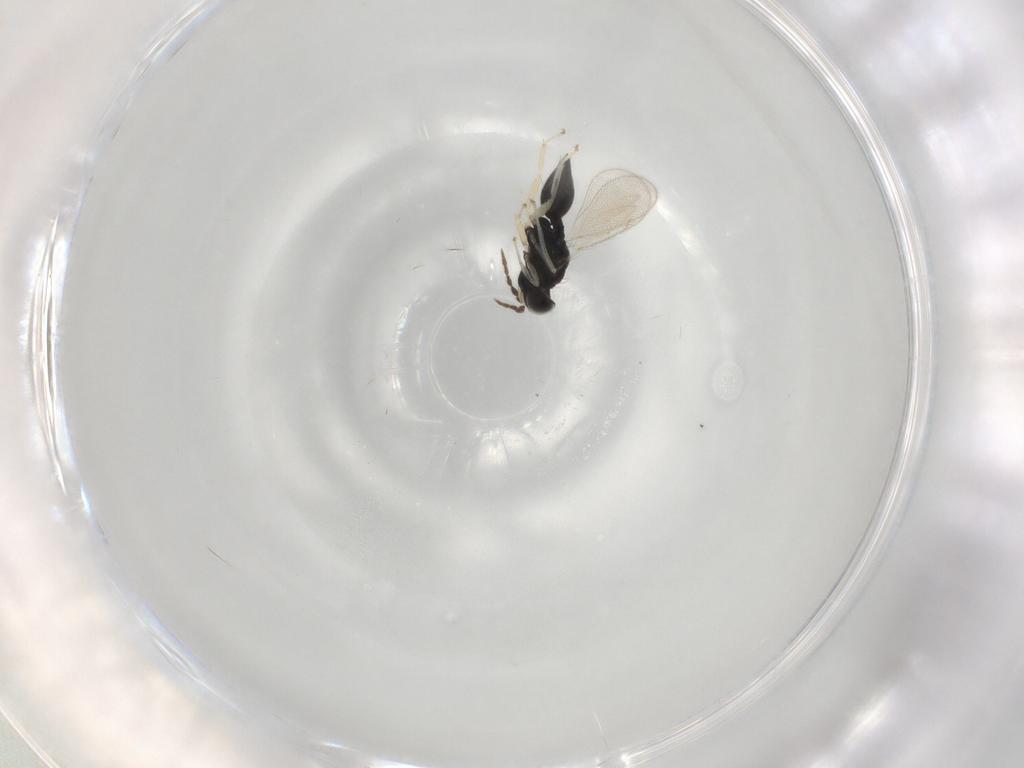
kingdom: Animalia
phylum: Arthropoda
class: Insecta
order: Hymenoptera
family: Eulophidae
